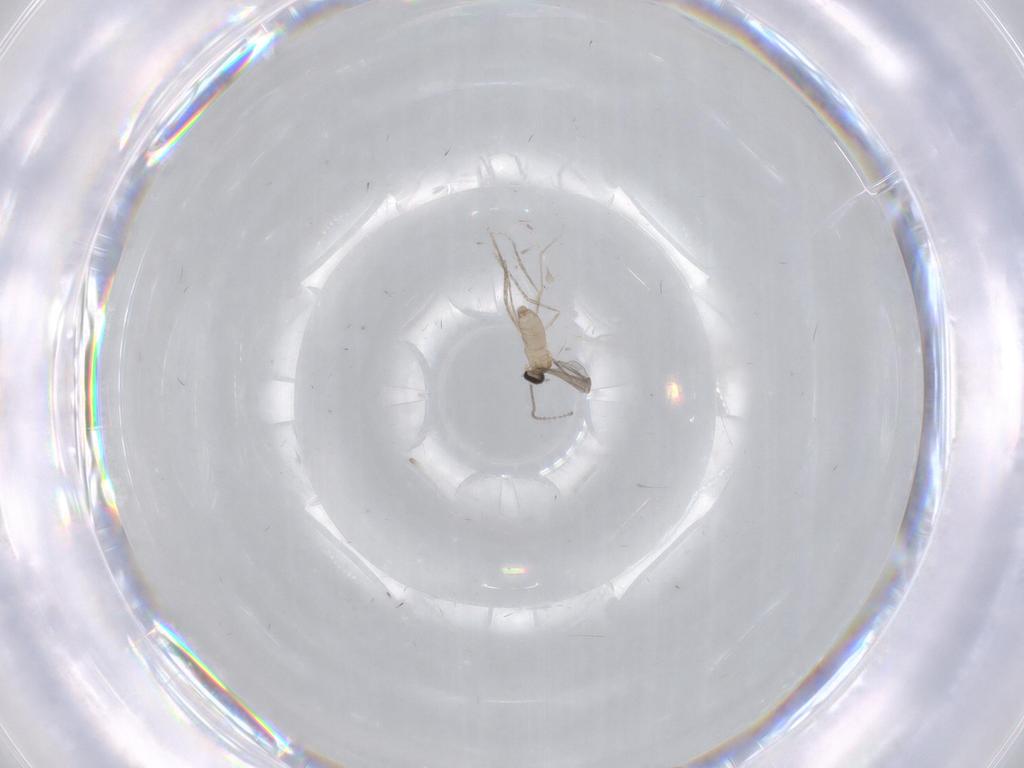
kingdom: Animalia
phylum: Arthropoda
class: Insecta
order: Diptera
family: Cecidomyiidae
